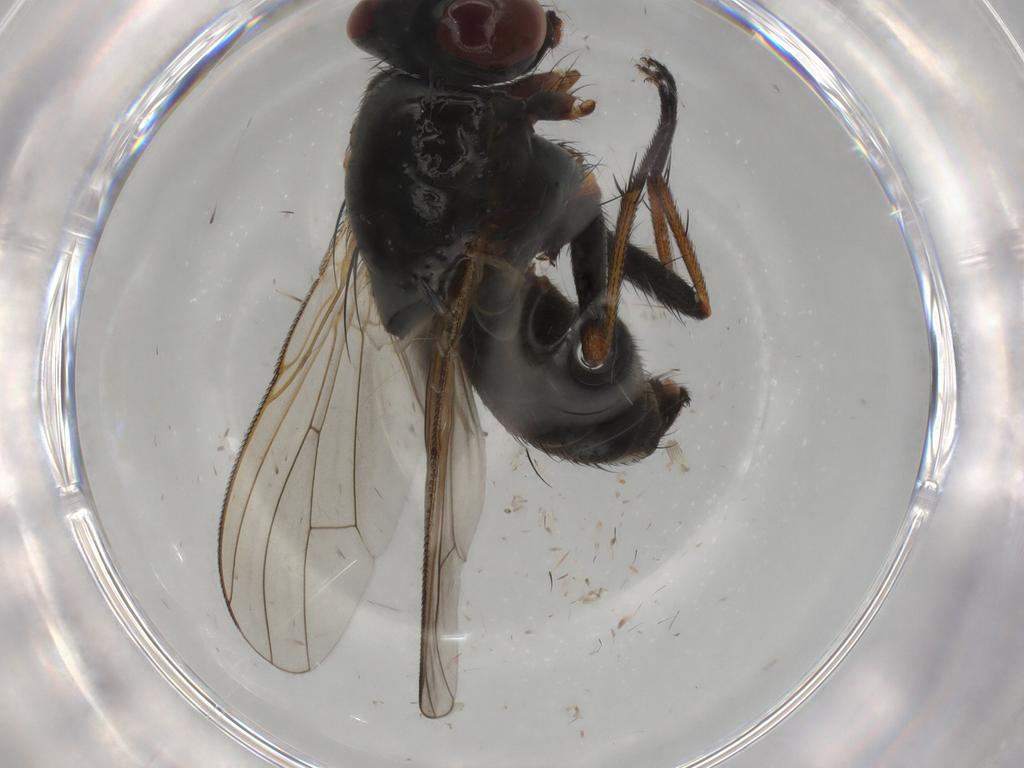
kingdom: Animalia
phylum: Arthropoda
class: Insecta
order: Diptera
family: Muscidae
